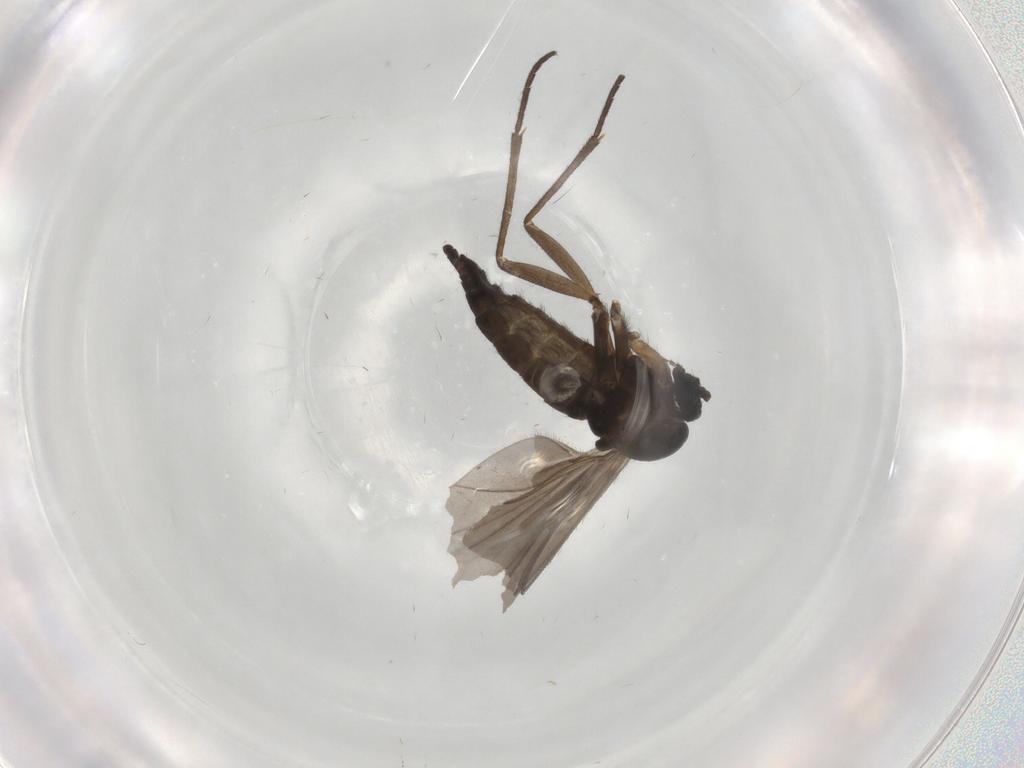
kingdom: Animalia
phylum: Arthropoda
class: Insecta
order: Diptera
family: Sciaridae
